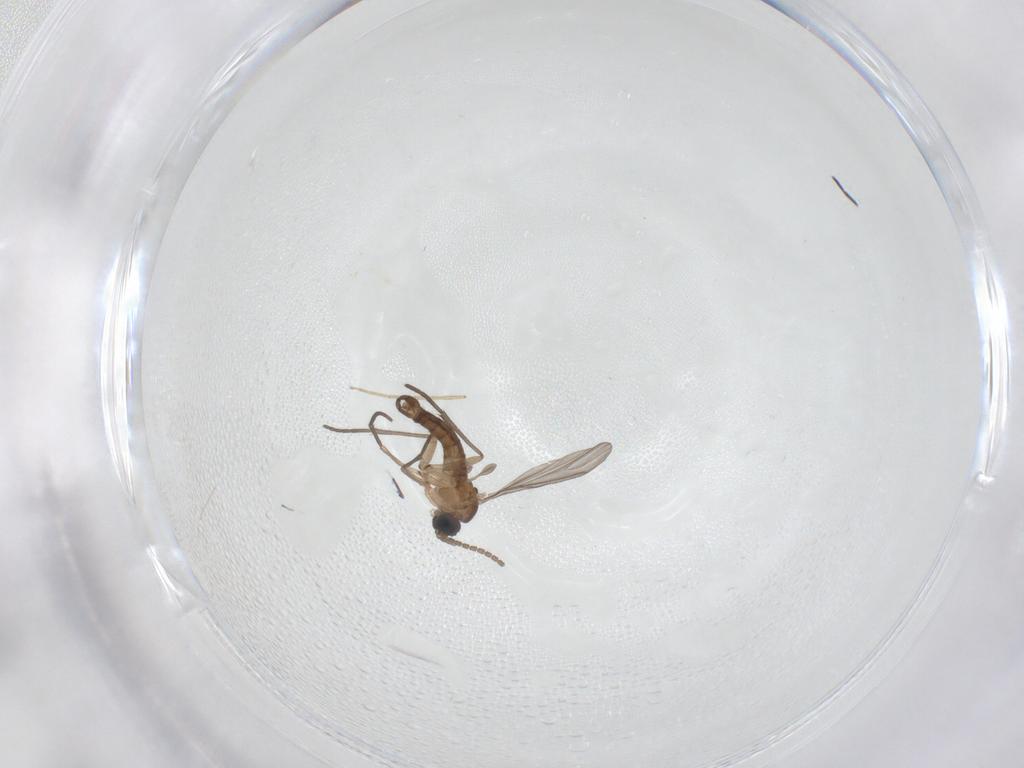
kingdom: Animalia
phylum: Arthropoda
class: Insecta
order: Diptera
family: Sciaridae
